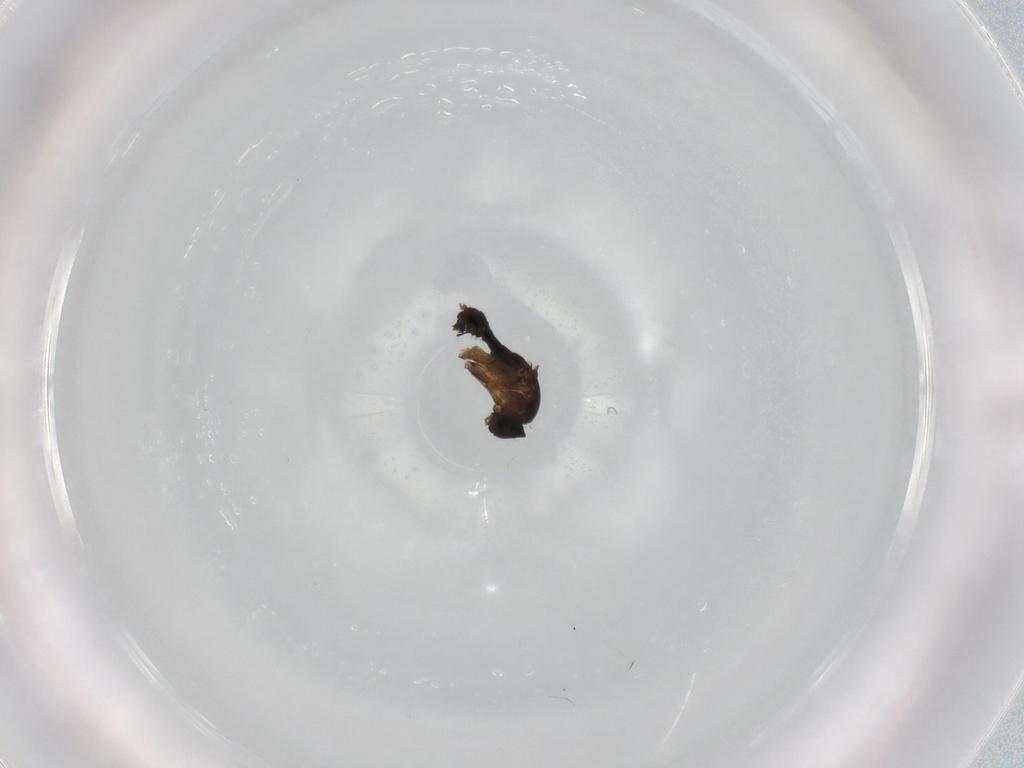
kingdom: Animalia
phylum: Arthropoda
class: Insecta
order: Diptera
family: Phoridae
